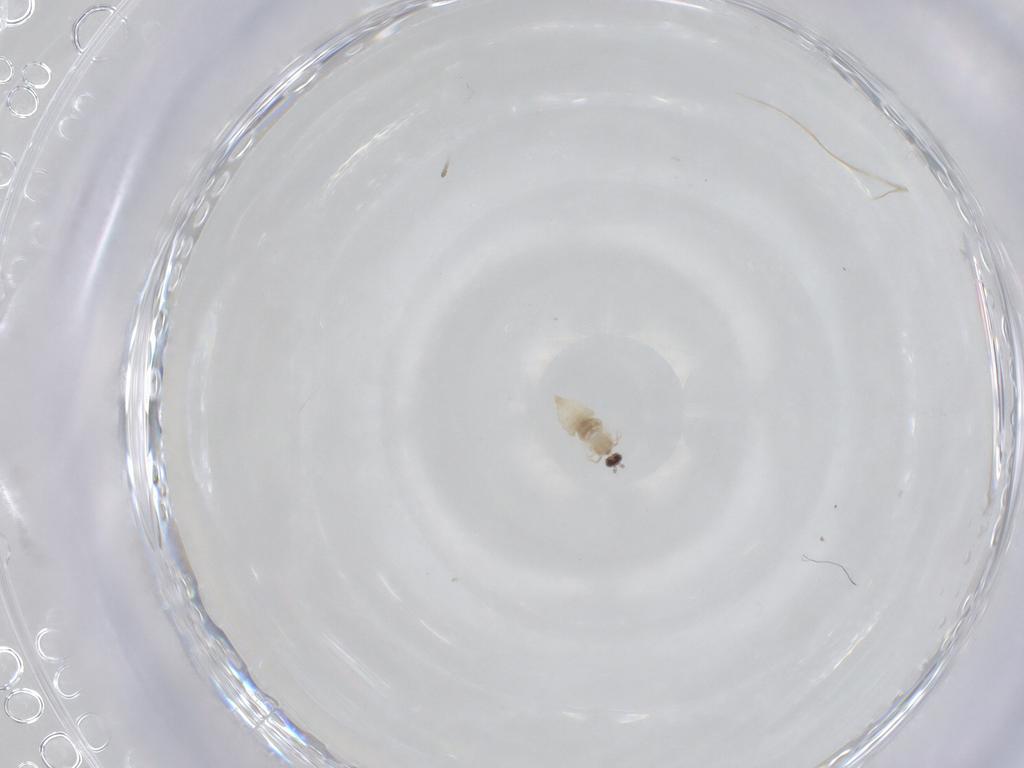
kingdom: Animalia
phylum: Arthropoda
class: Insecta
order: Diptera
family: Cecidomyiidae
